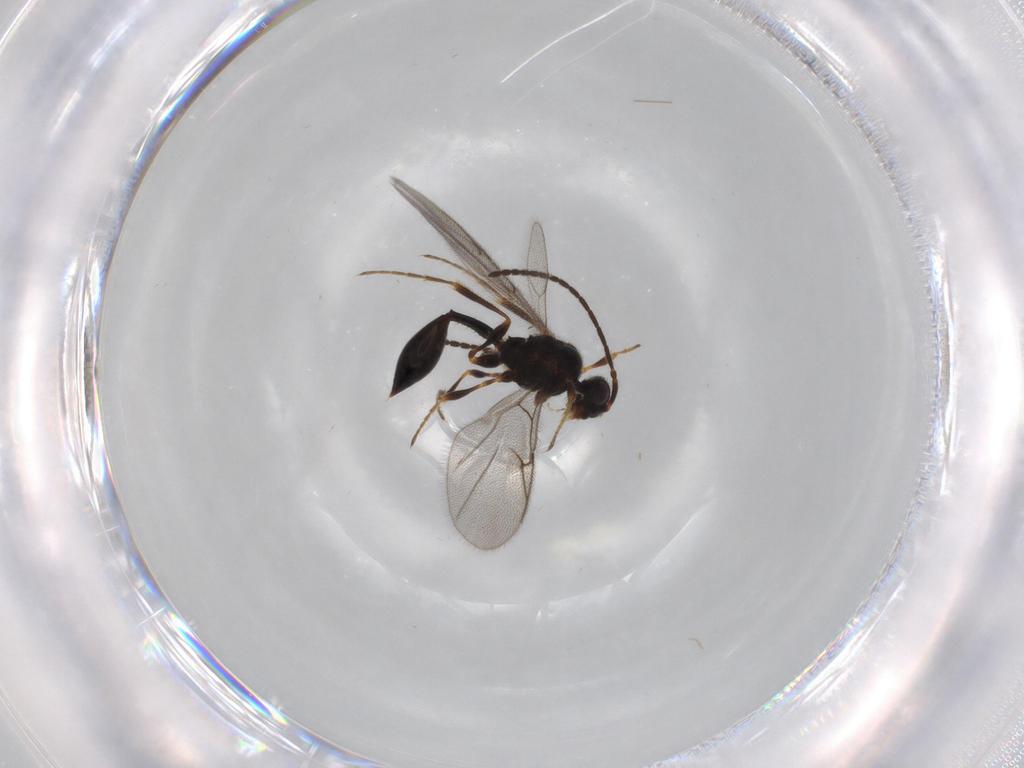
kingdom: Animalia
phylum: Arthropoda
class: Insecta
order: Hymenoptera
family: Diapriidae
